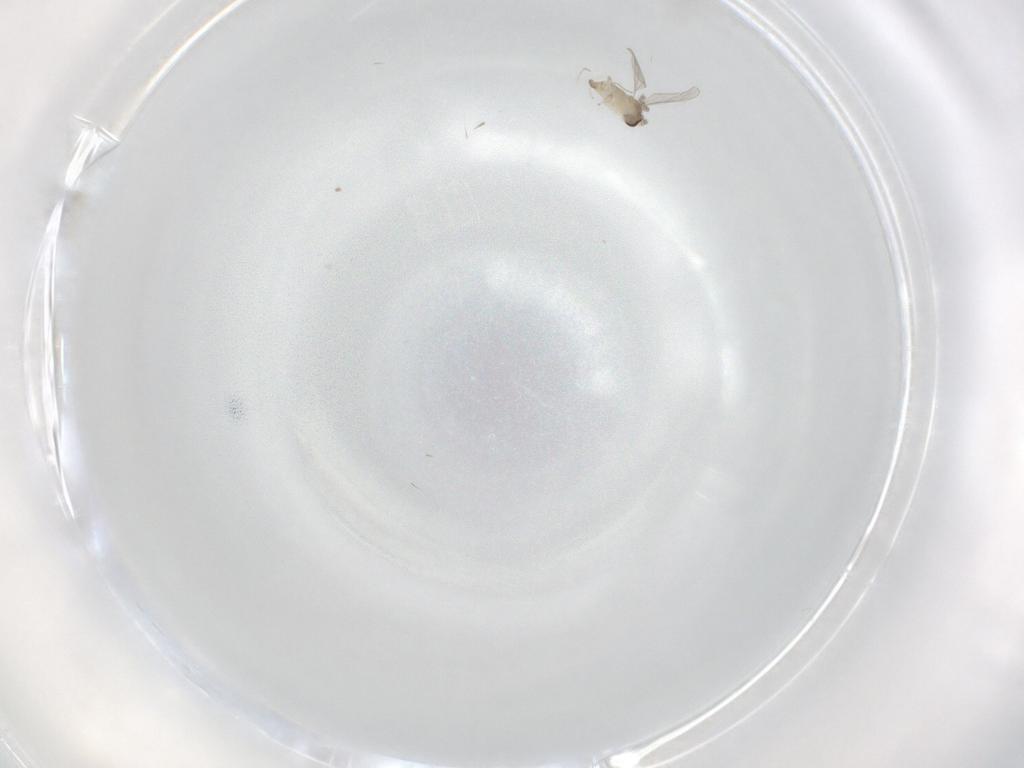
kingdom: Animalia
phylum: Arthropoda
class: Insecta
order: Diptera
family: Cecidomyiidae
